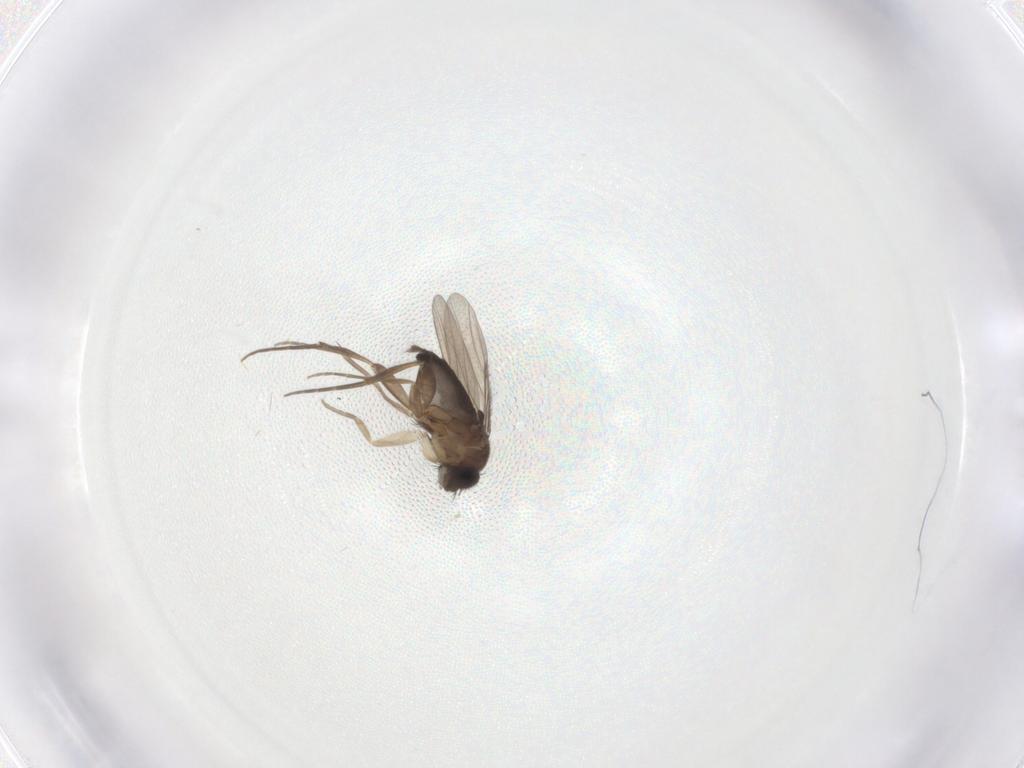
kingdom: Animalia
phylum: Arthropoda
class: Insecta
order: Diptera
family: Phoridae
